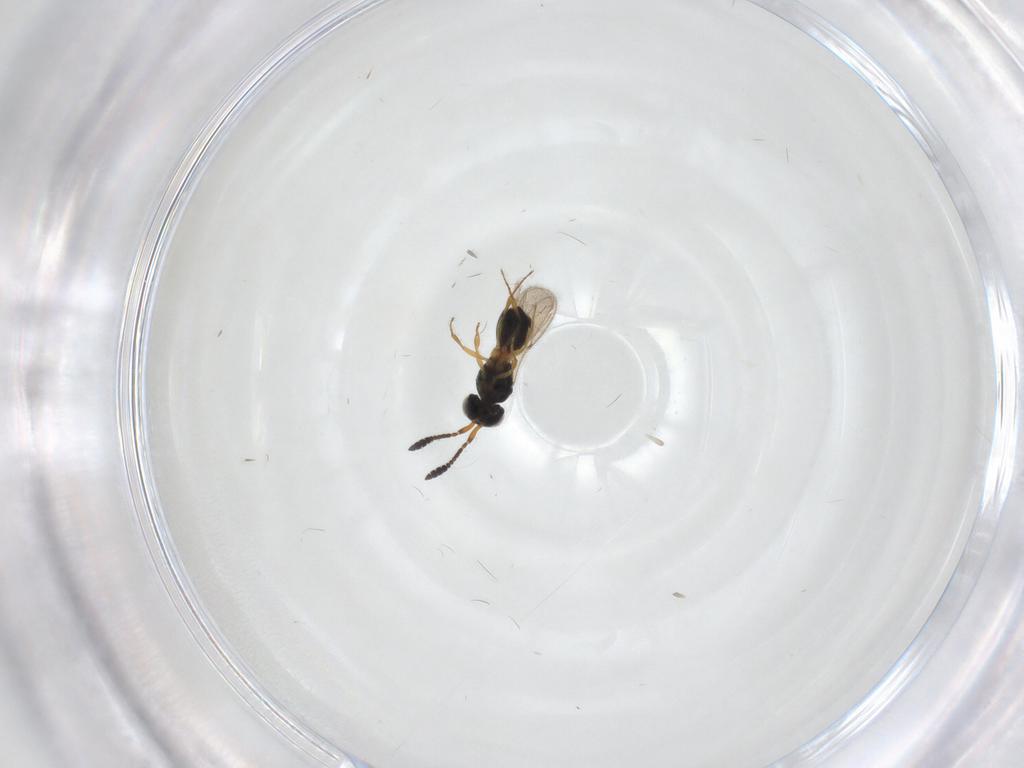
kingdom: Animalia
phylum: Arthropoda
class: Insecta
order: Hymenoptera
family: Scelionidae
